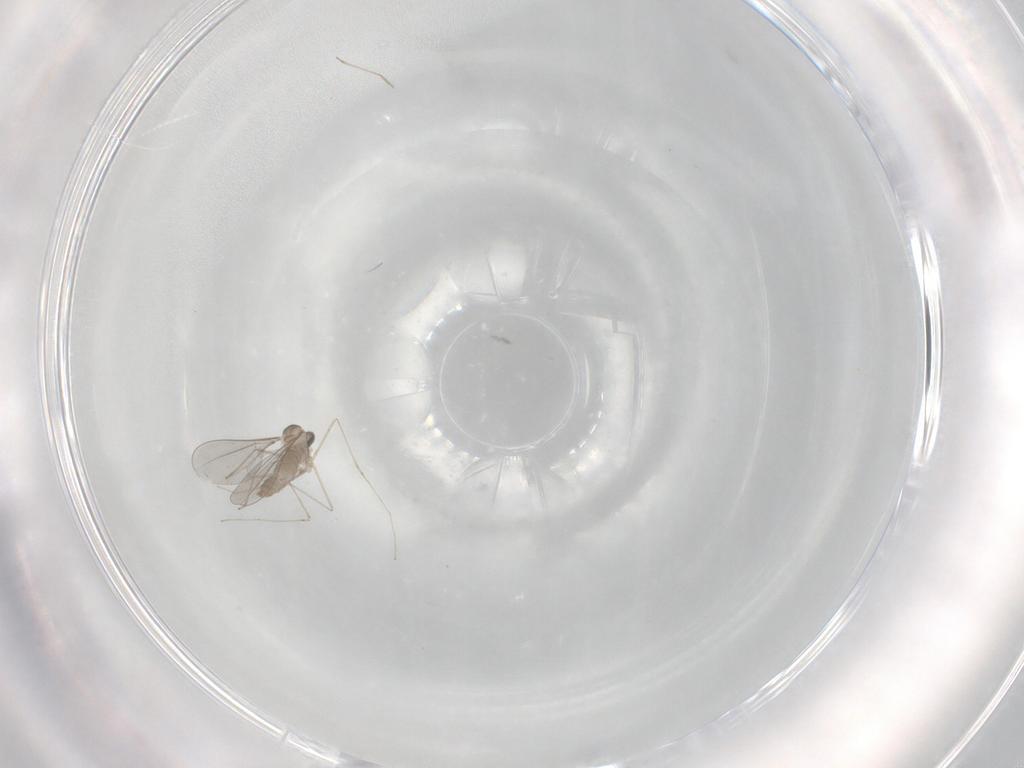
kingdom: Animalia
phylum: Arthropoda
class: Insecta
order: Diptera
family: Cecidomyiidae
